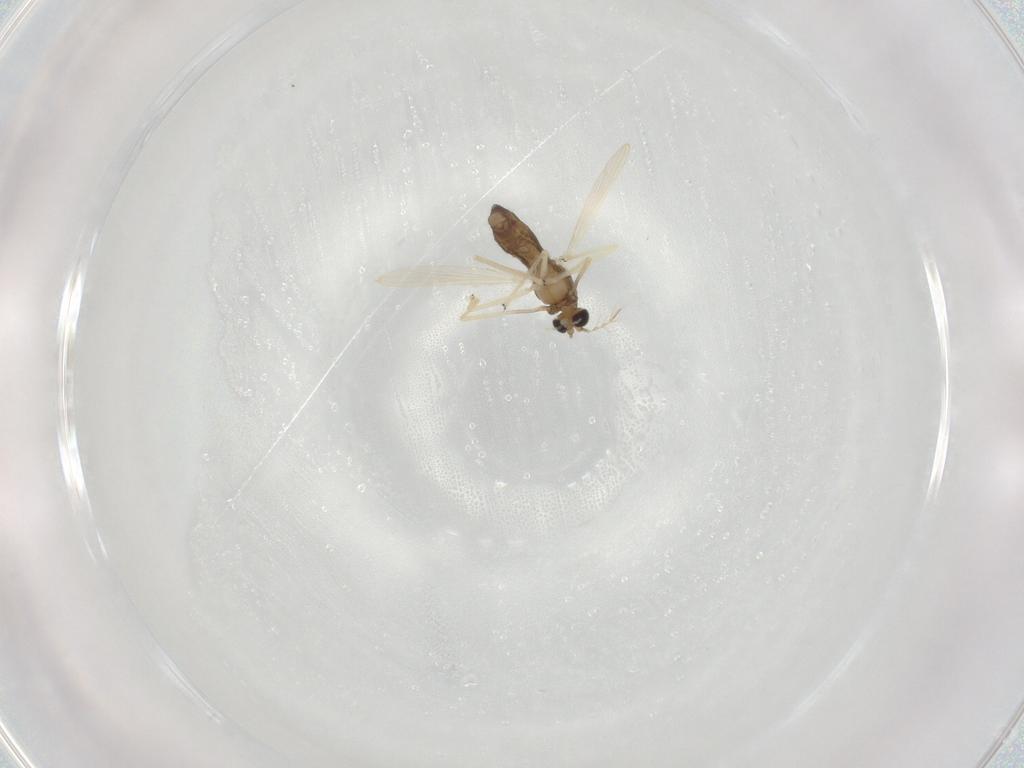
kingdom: Animalia
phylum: Arthropoda
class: Insecta
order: Diptera
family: Chironomidae
